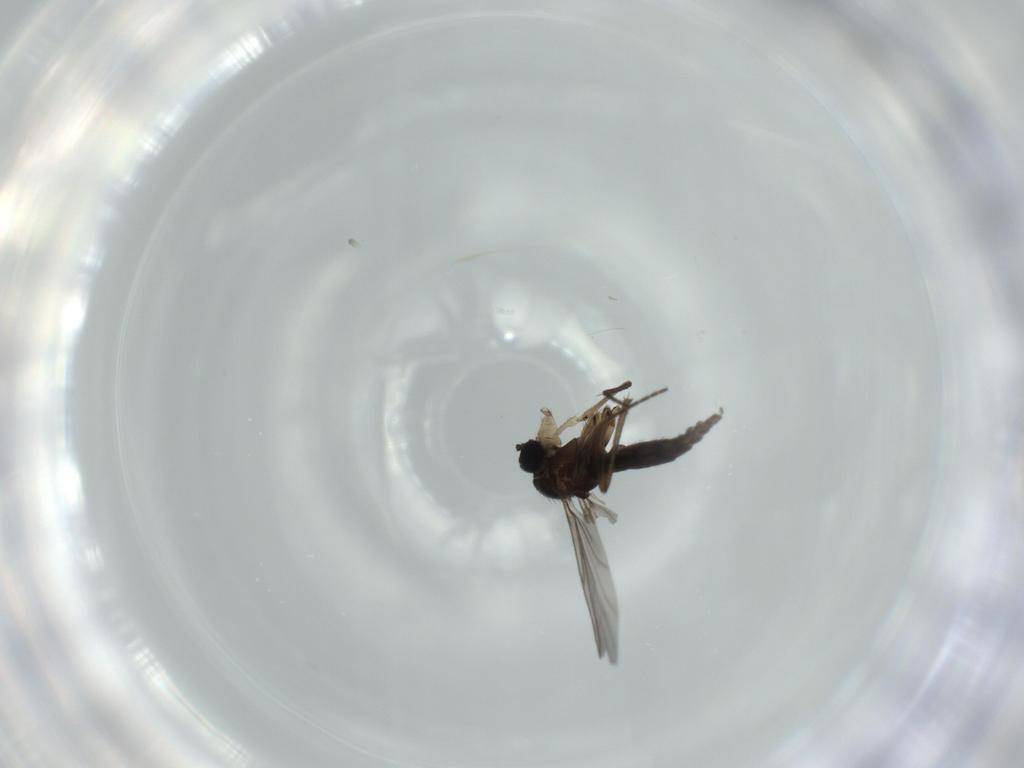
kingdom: Animalia
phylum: Arthropoda
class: Insecta
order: Diptera
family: Sciaridae
